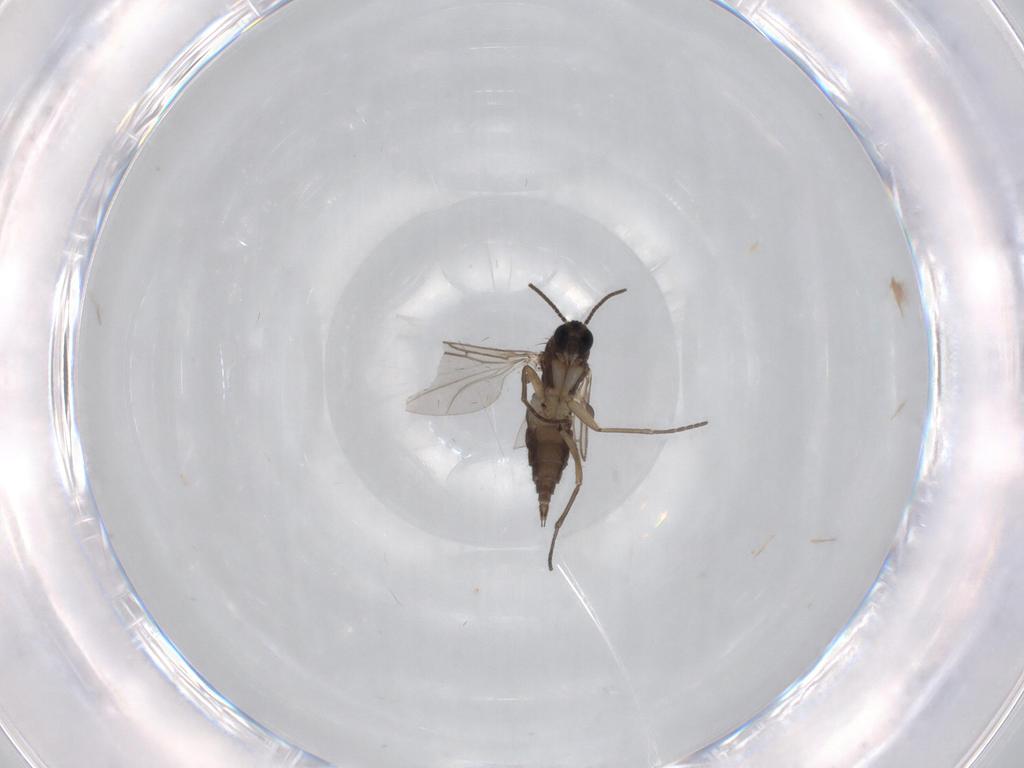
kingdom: Animalia
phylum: Arthropoda
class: Insecta
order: Diptera
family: Sciaridae
